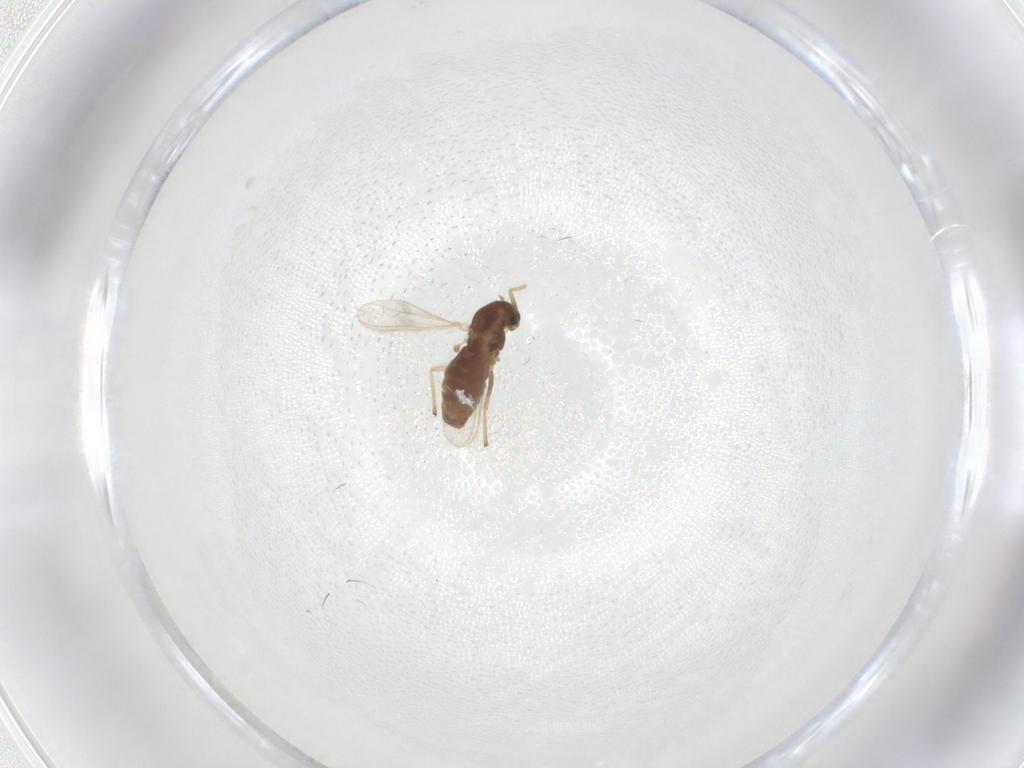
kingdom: Animalia
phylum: Arthropoda
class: Insecta
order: Diptera
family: Chironomidae
